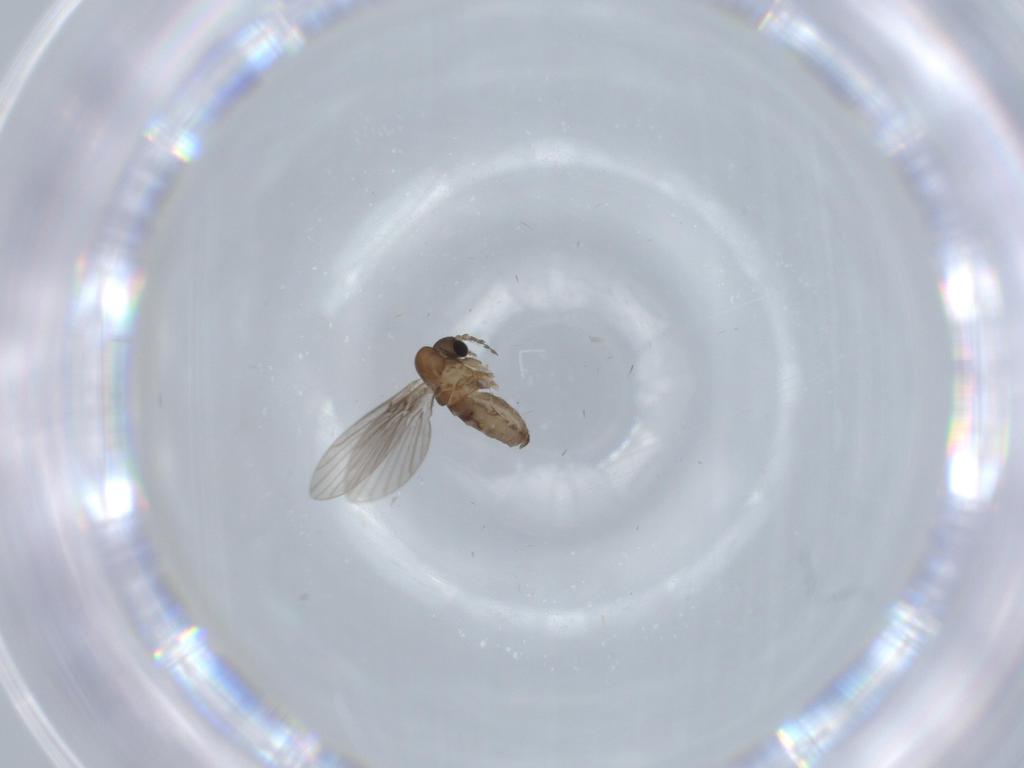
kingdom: Animalia
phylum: Arthropoda
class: Insecta
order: Diptera
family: Psychodidae
